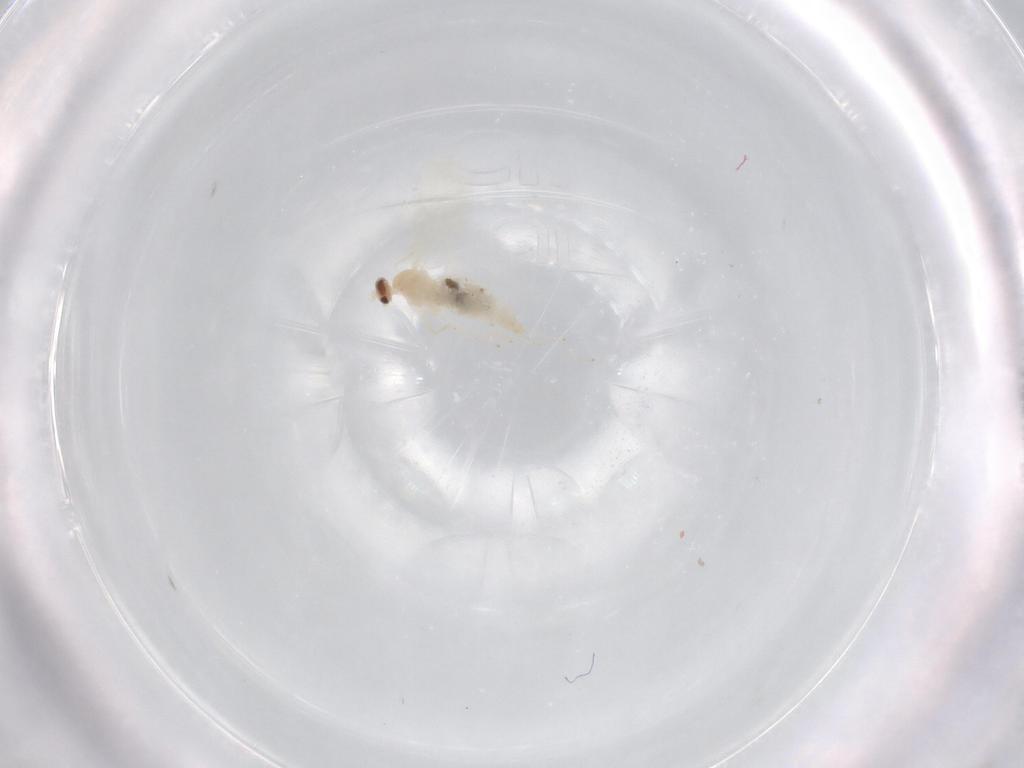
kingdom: Animalia
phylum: Arthropoda
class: Insecta
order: Diptera
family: Cecidomyiidae
